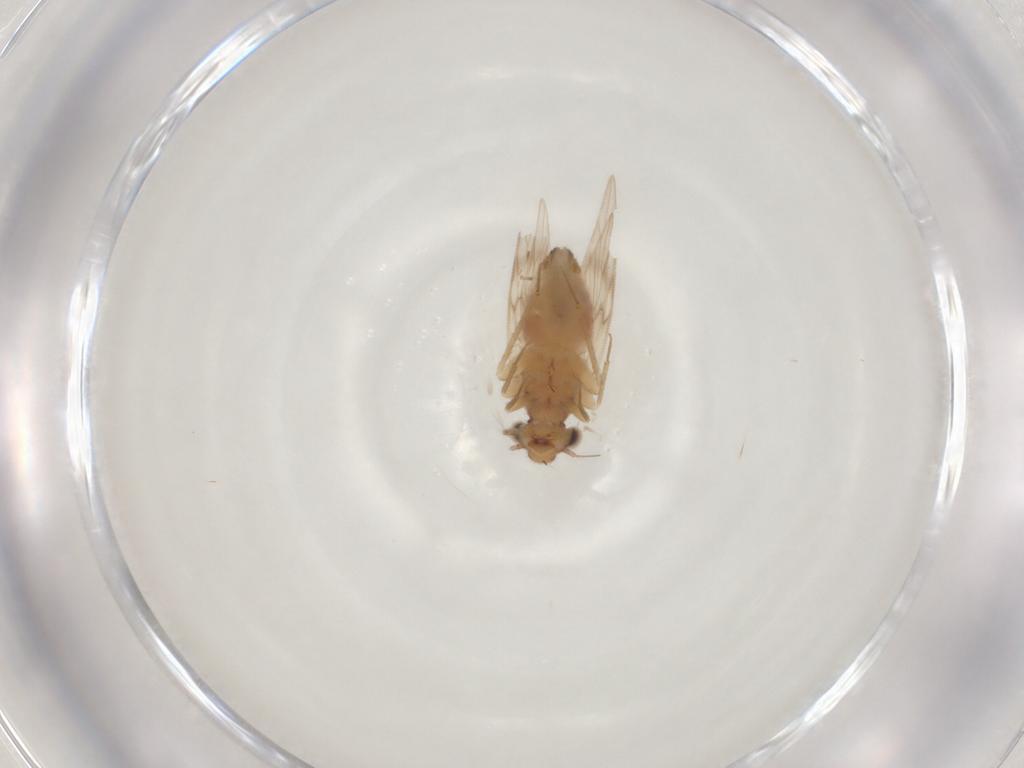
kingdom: Animalia
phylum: Arthropoda
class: Insecta
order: Psocodea
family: Lepidopsocidae
